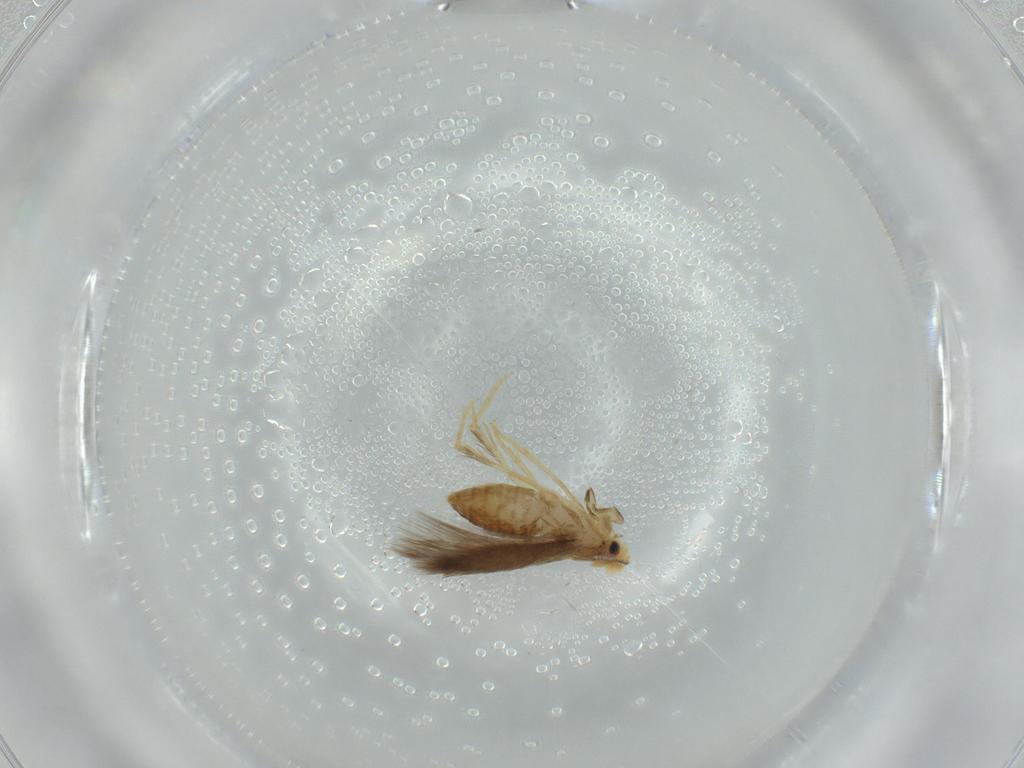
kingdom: Animalia
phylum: Arthropoda
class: Insecta
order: Lepidoptera
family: Nepticulidae
